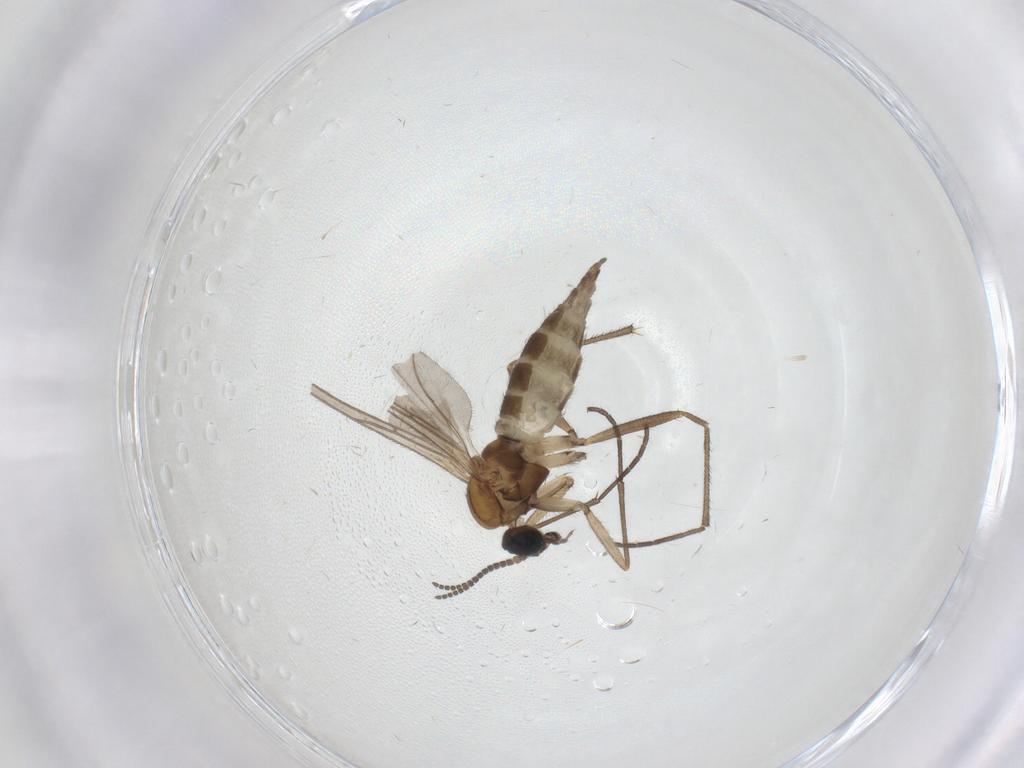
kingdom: Animalia
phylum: Arthropoda
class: Insecta
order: Diptera
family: Sciaridae
